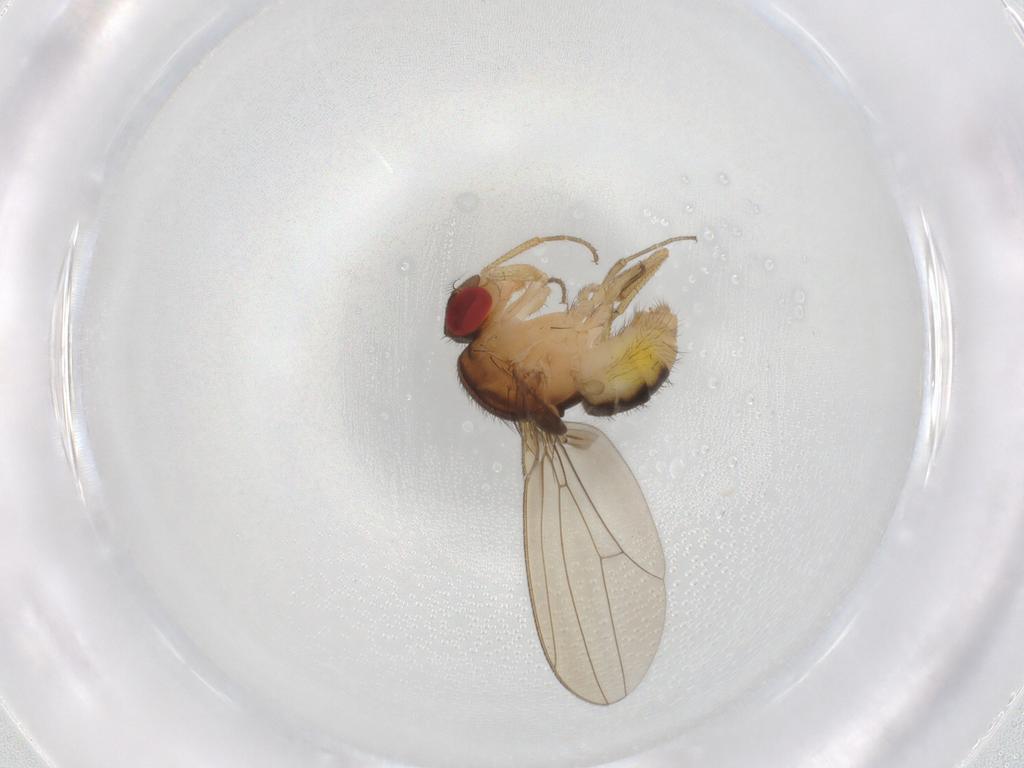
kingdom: Animalia
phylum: Arthropoda
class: Insecta
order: Diptera
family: Drosophilidae
